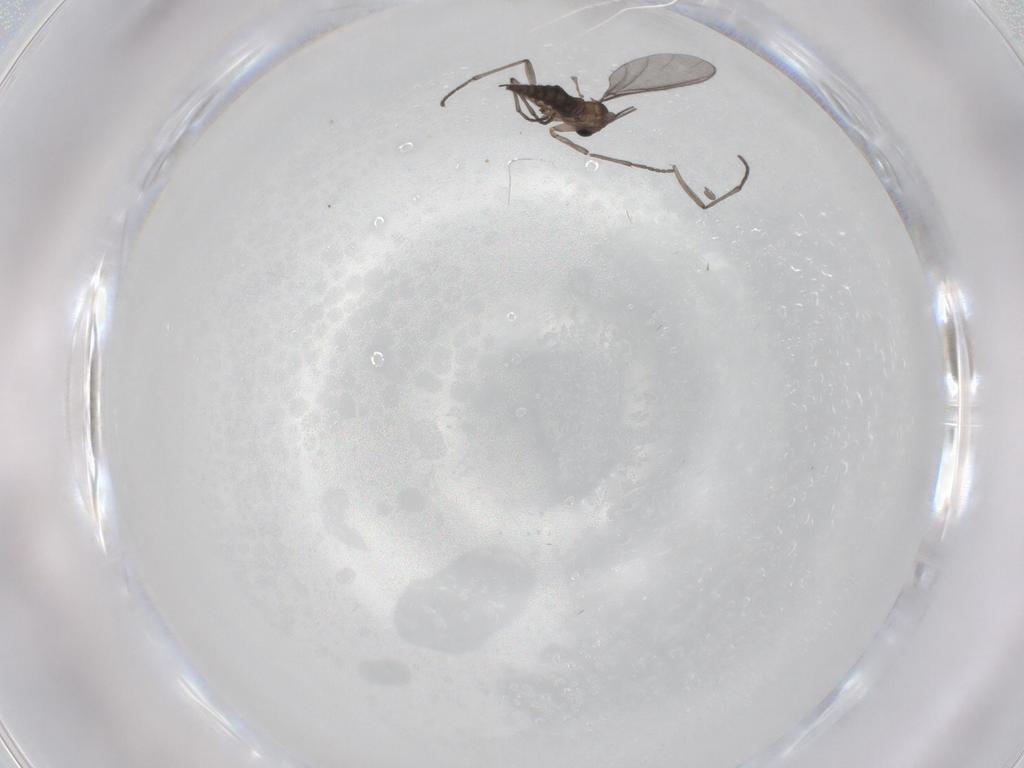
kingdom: Animalia
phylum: Arthropoda
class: Insecta
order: Diptera
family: Sciaridae
